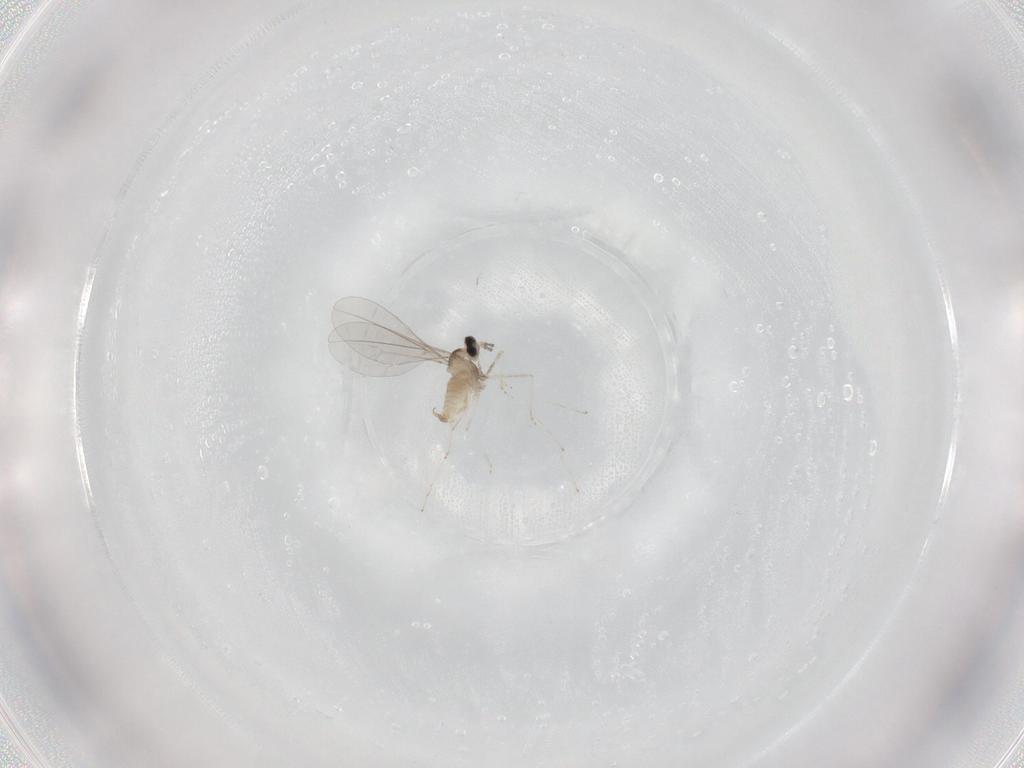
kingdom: Animalia
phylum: Arthropoda
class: Insecta
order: Diptera
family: Cecidomyiidae
